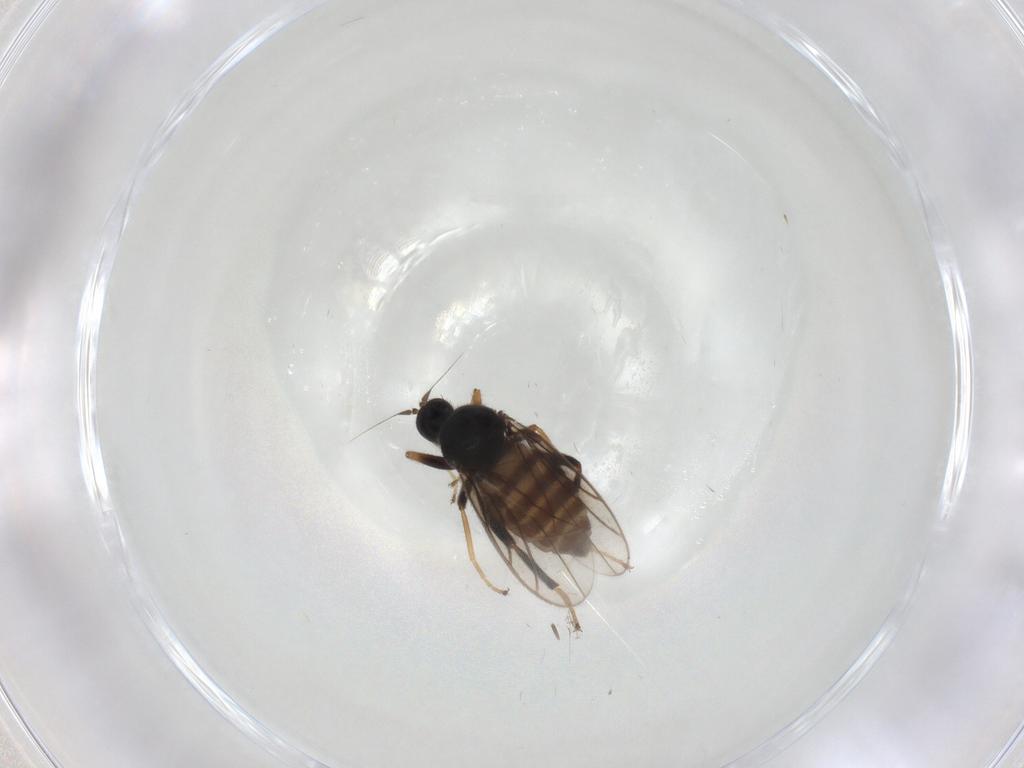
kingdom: Animalia
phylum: Arthropoda
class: Insecta
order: Diptera
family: Hybotidae
